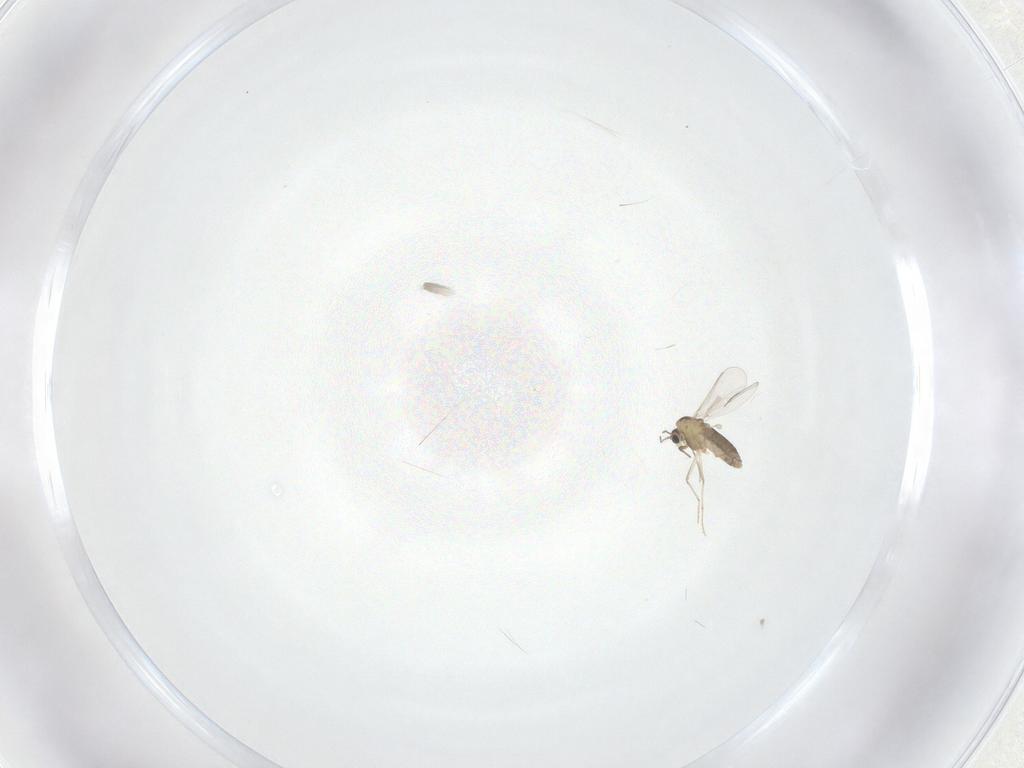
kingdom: Animalia
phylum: Arthropoda
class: Insecta
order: Diptera
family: Chironomidae
